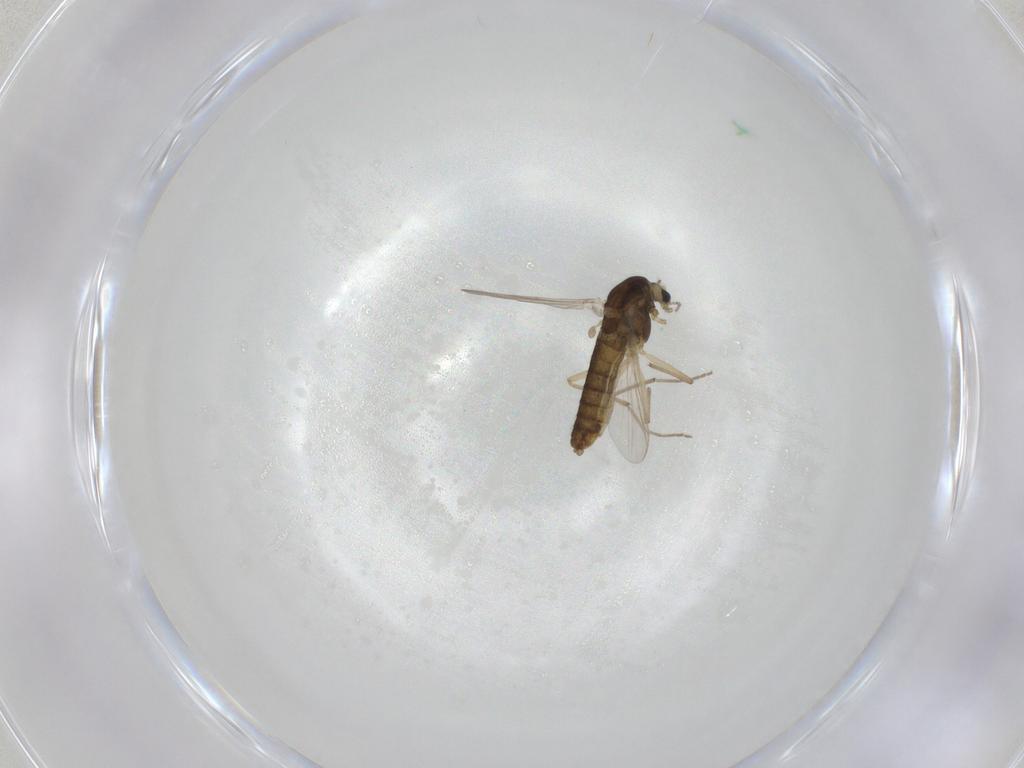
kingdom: Animalia
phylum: Arthropoda
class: Insecta
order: Diptera
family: Chironomidae
